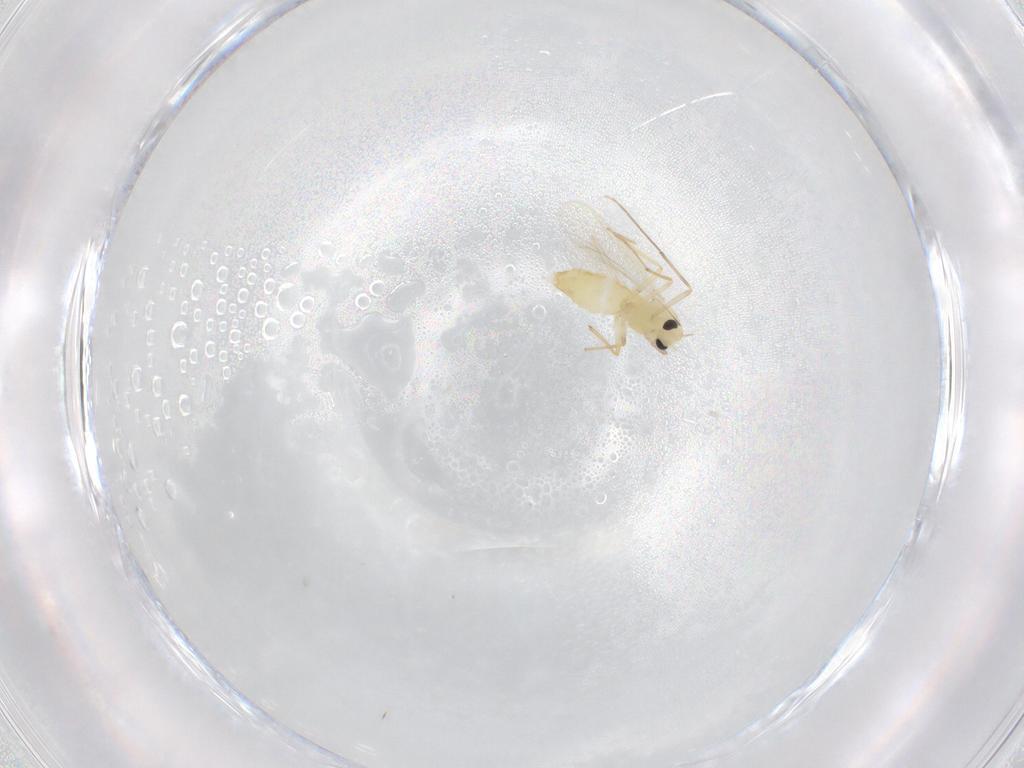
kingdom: Animalia
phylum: Arthropoda
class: Insecta
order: Diptera
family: Chironomidae
